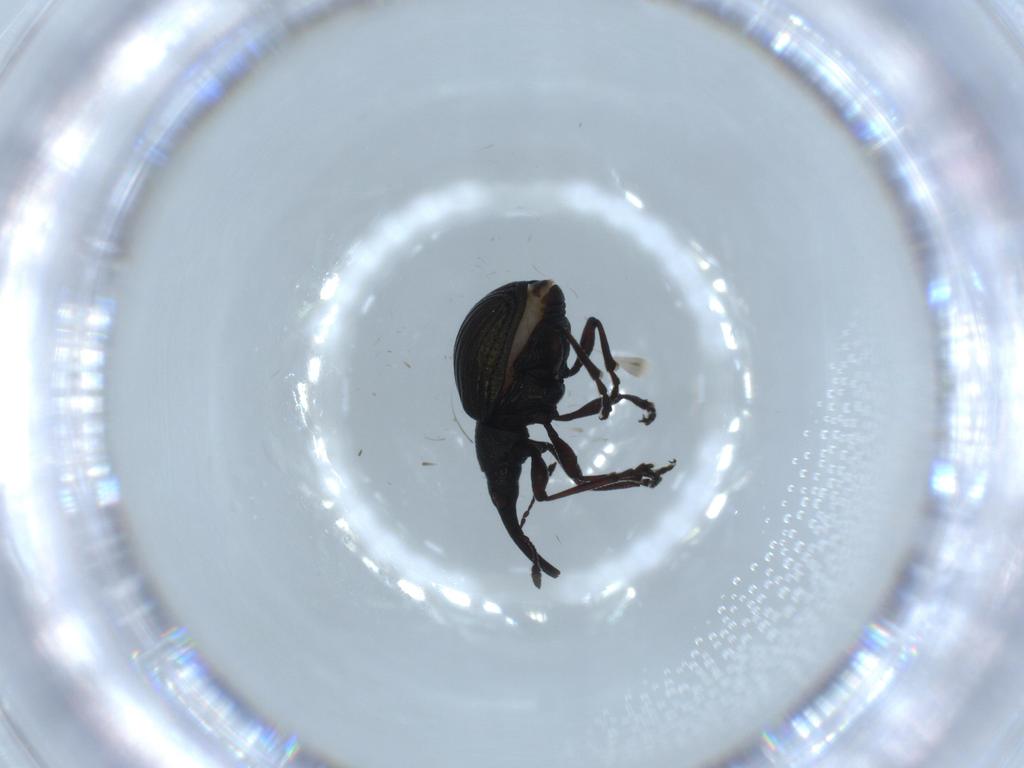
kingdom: Animalia
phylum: Arthropoda
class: Insecta
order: Coleoptera
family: Brentidae
